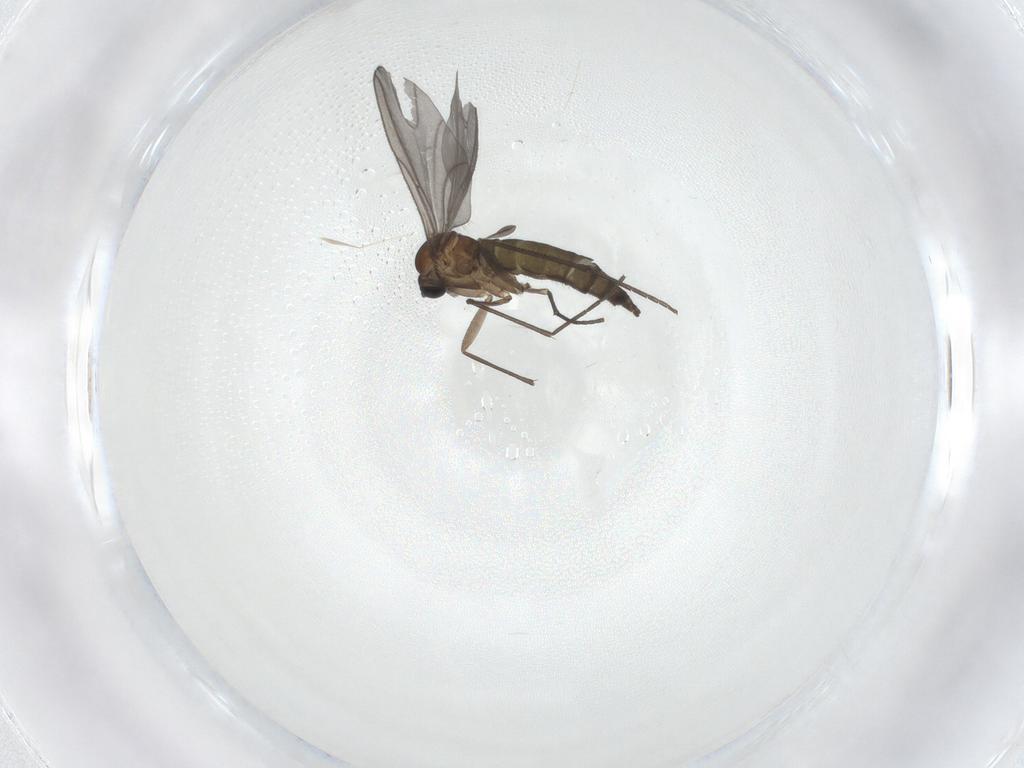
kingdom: Animalia
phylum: Arthropoda
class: Insecta
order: Diptera
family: Sciaridae
